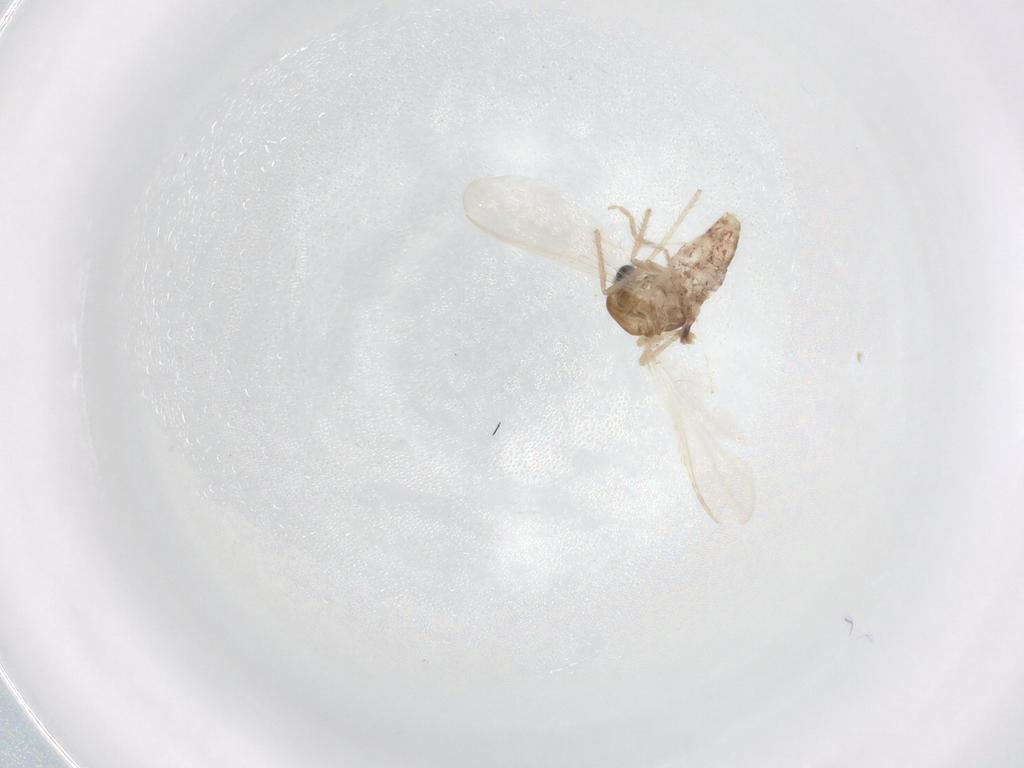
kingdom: Animalia
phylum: Arthropoda
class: Insecta
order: Diptera
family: Chironomidae
